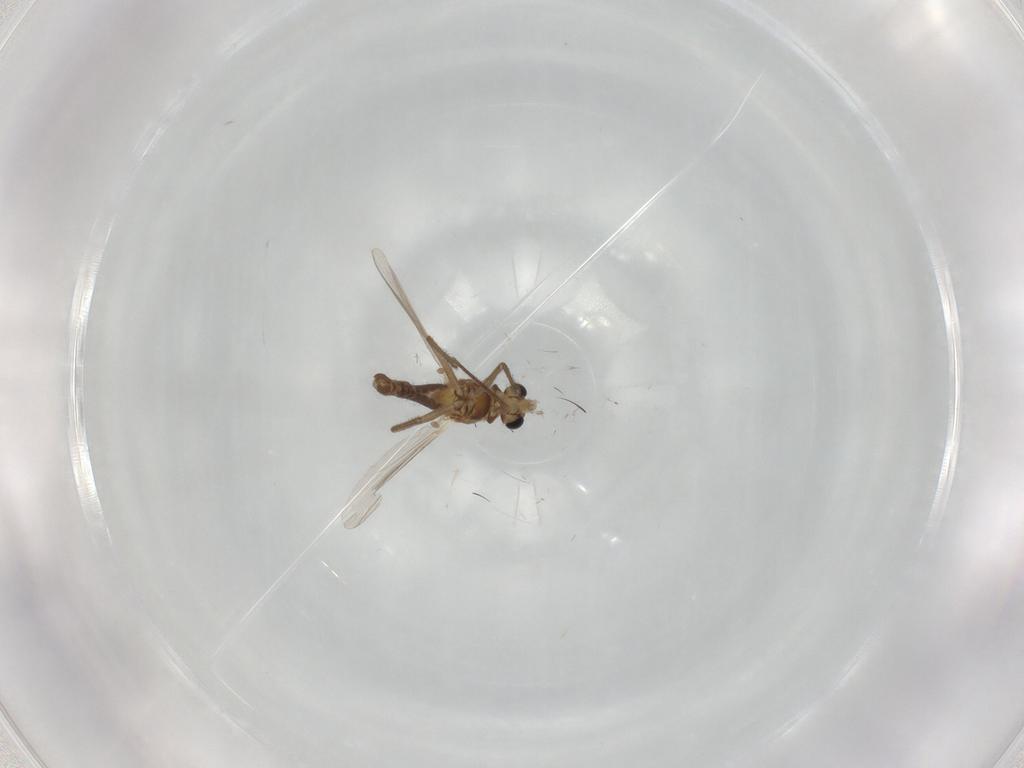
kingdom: Animalia
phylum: Arthropoda
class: Insecta
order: Diptera
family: Chironomidae
